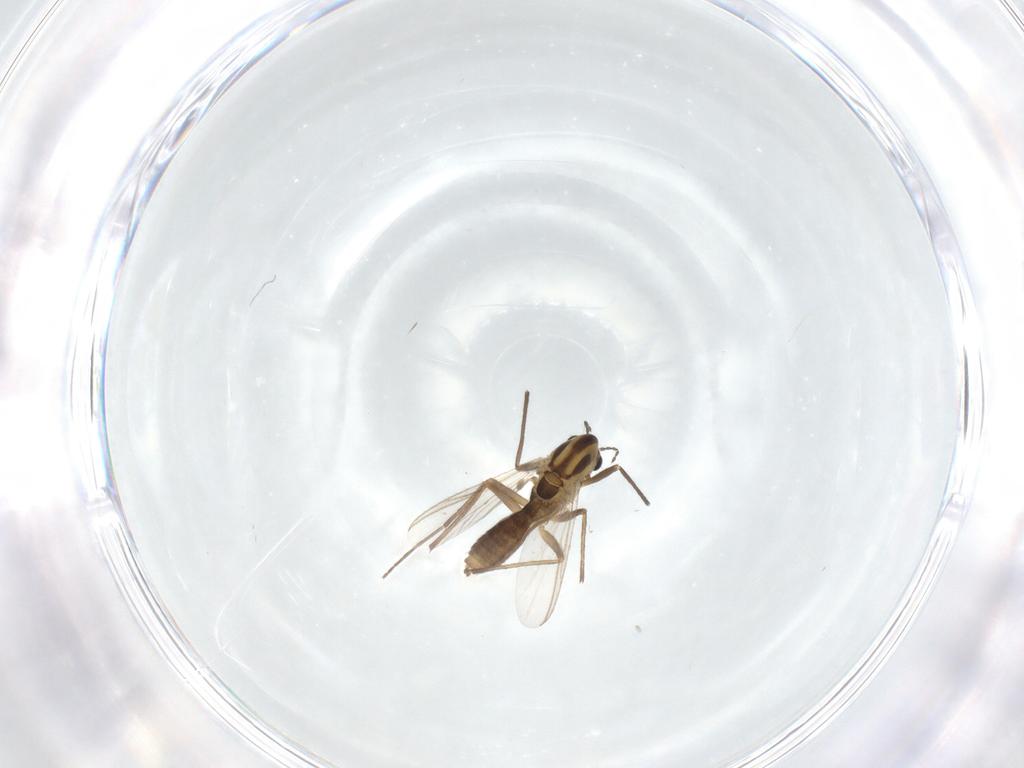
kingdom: Animalia
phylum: Arthropoda
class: Insecta
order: Diptera
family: Asilidae
